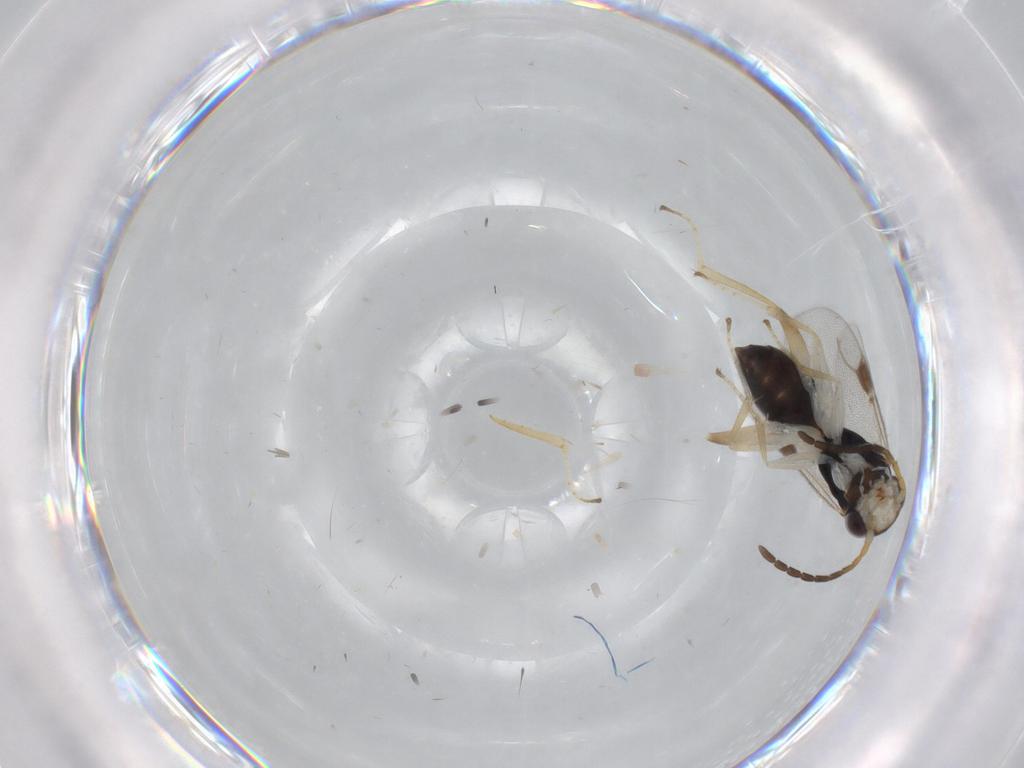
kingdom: Animalia
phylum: Arthropoda
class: Insecta
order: Hymenoptera
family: Dryinidae
